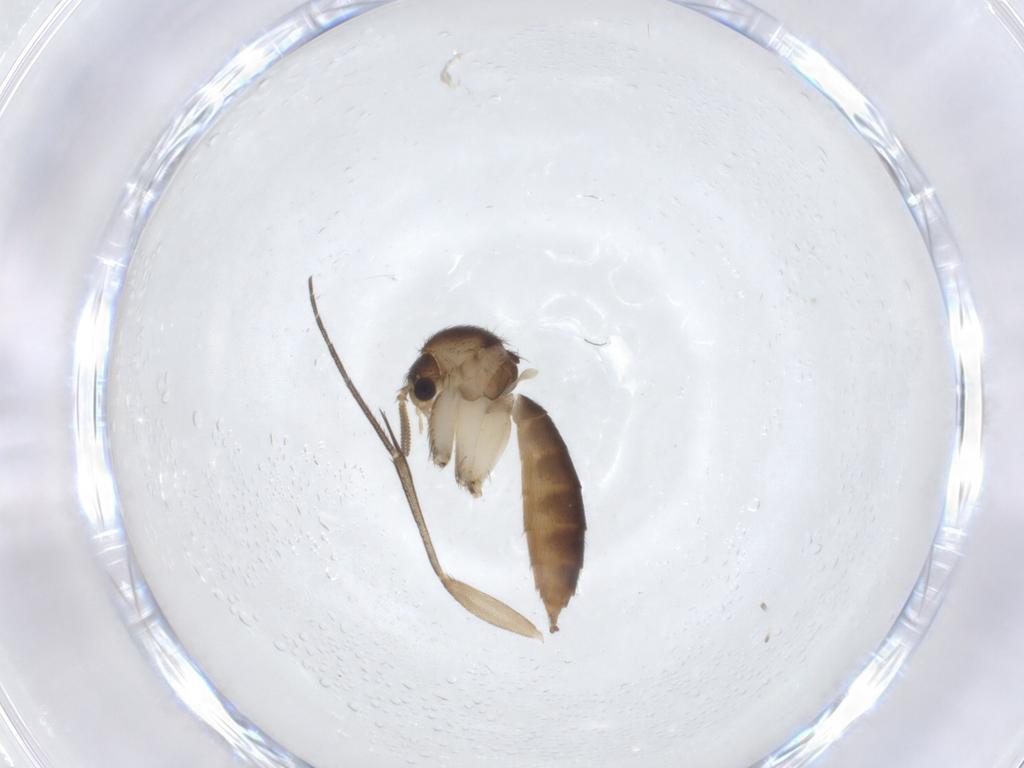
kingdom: Animalia
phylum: Arthropoda
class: Insecta
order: Diptera
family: Mycetophilidae
